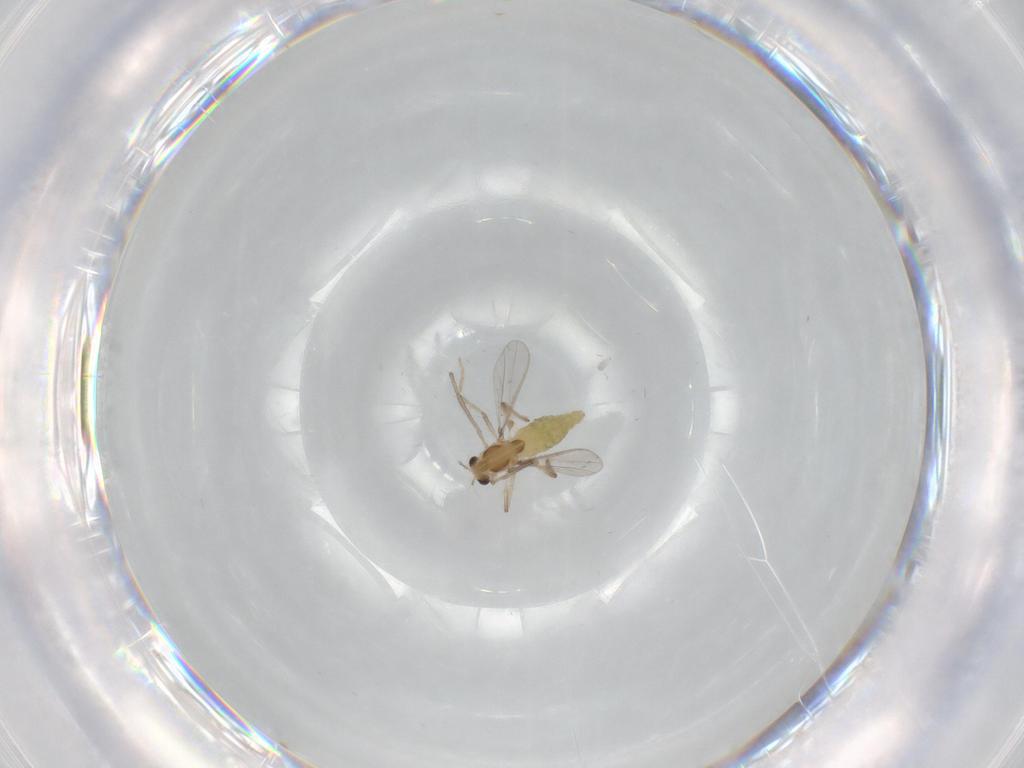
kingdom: Animalia
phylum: Arthropoda
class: Insecta
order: Diptera
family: Chironomidae
